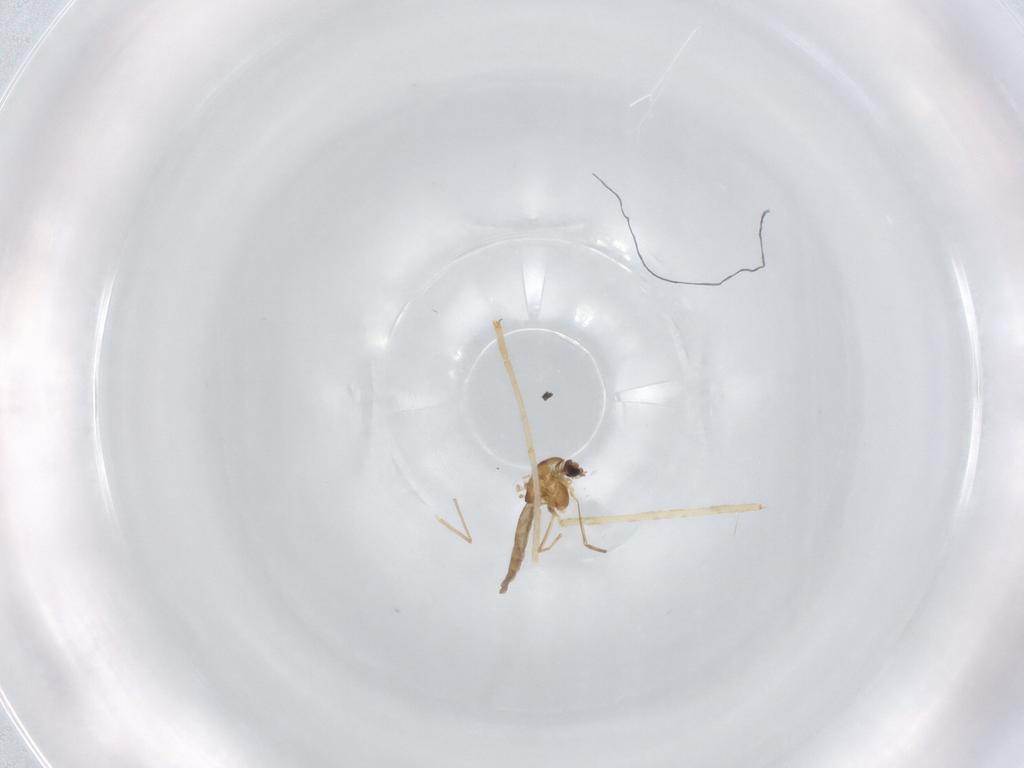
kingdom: Animalia
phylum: Arthropoda
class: Insecta
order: Diptera
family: Chironomidae
